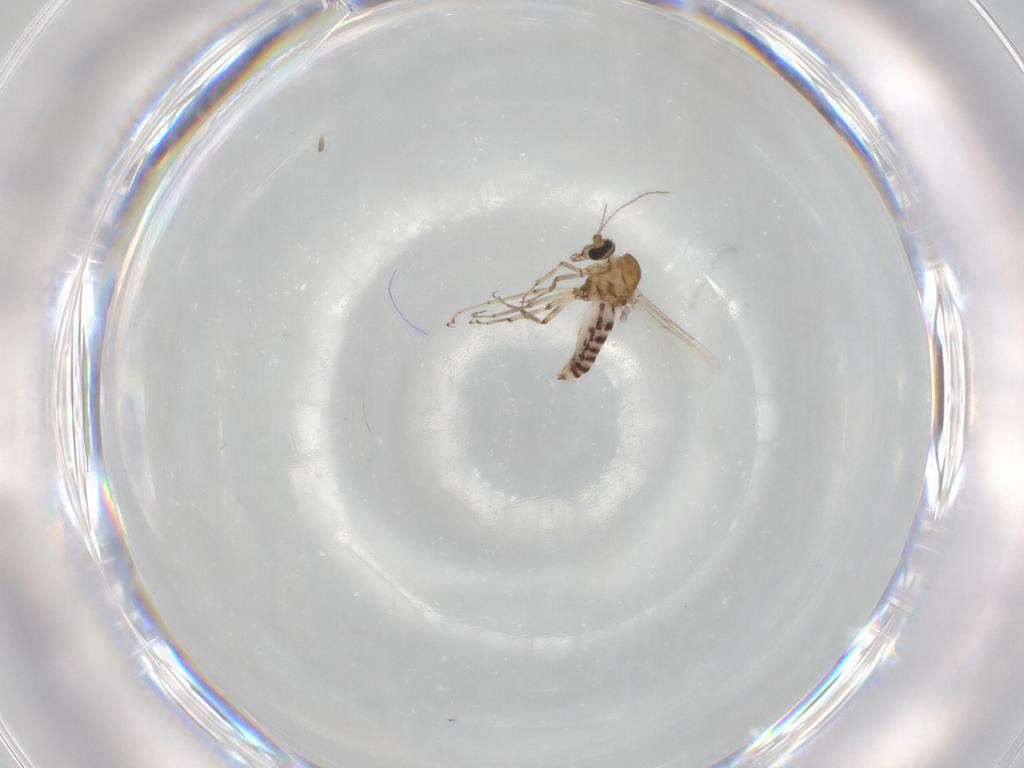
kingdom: Animalia
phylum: Arthropoda
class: Insecta
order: Diptera
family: Ceratopogonidae
